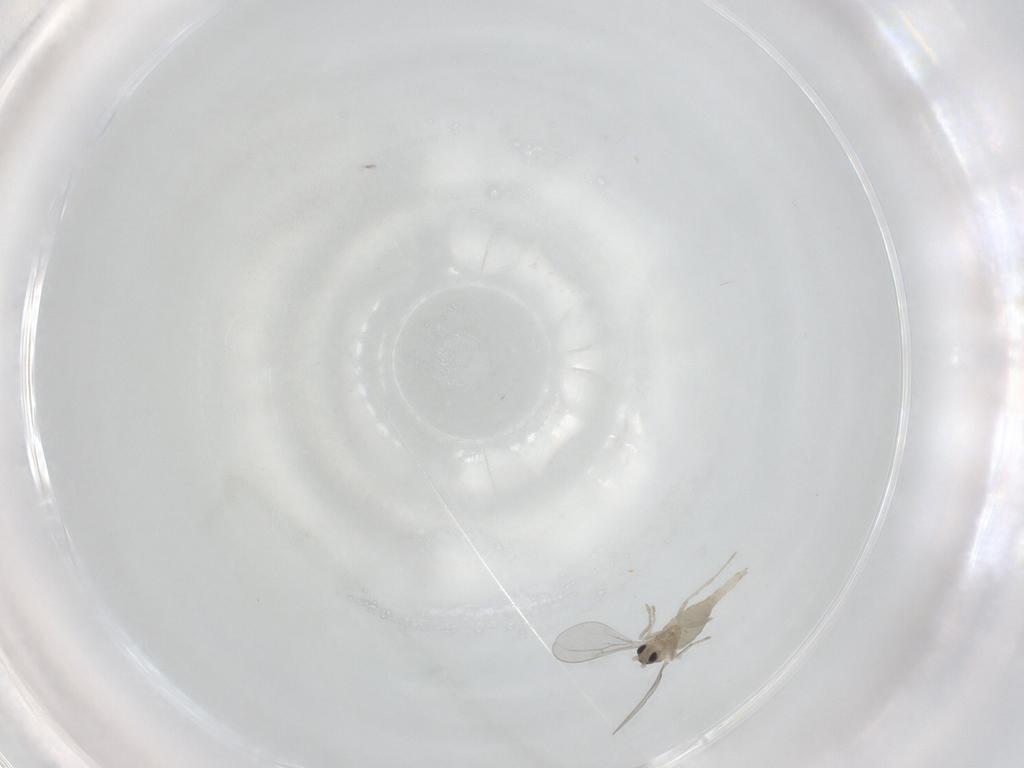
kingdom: Animalia
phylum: Arthropoda
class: Insecta
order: Diptera
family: Cecidomyiidae
